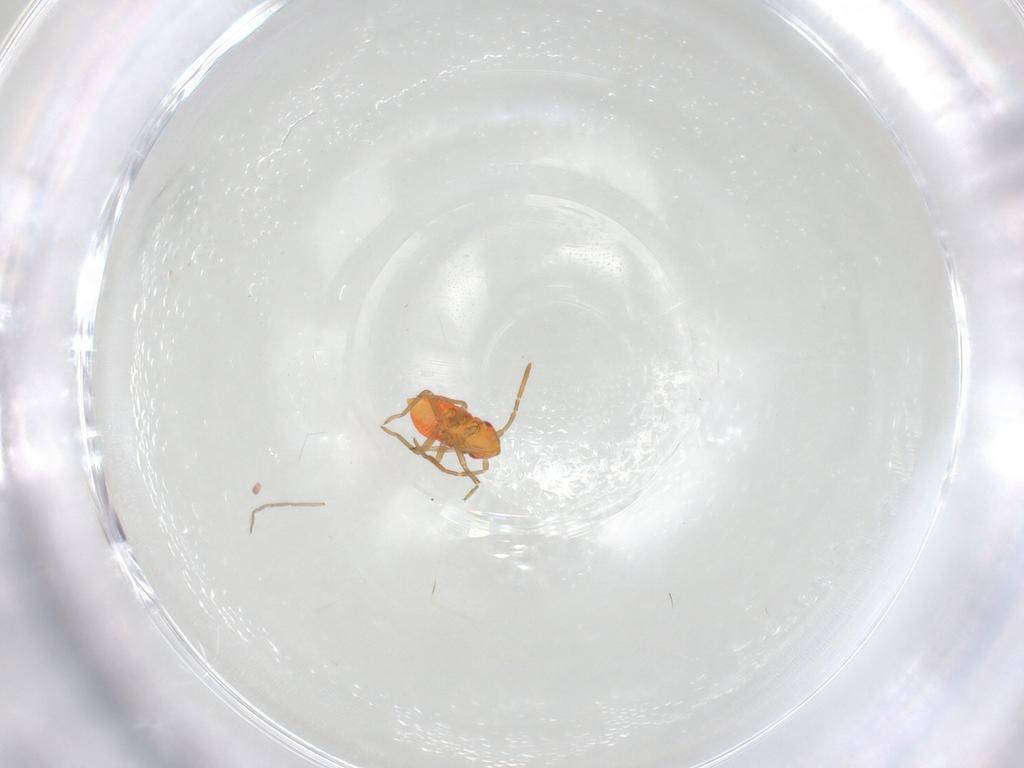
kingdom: Animalia
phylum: Arthropoda
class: Insecta
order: Hemiptera
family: Miridae
